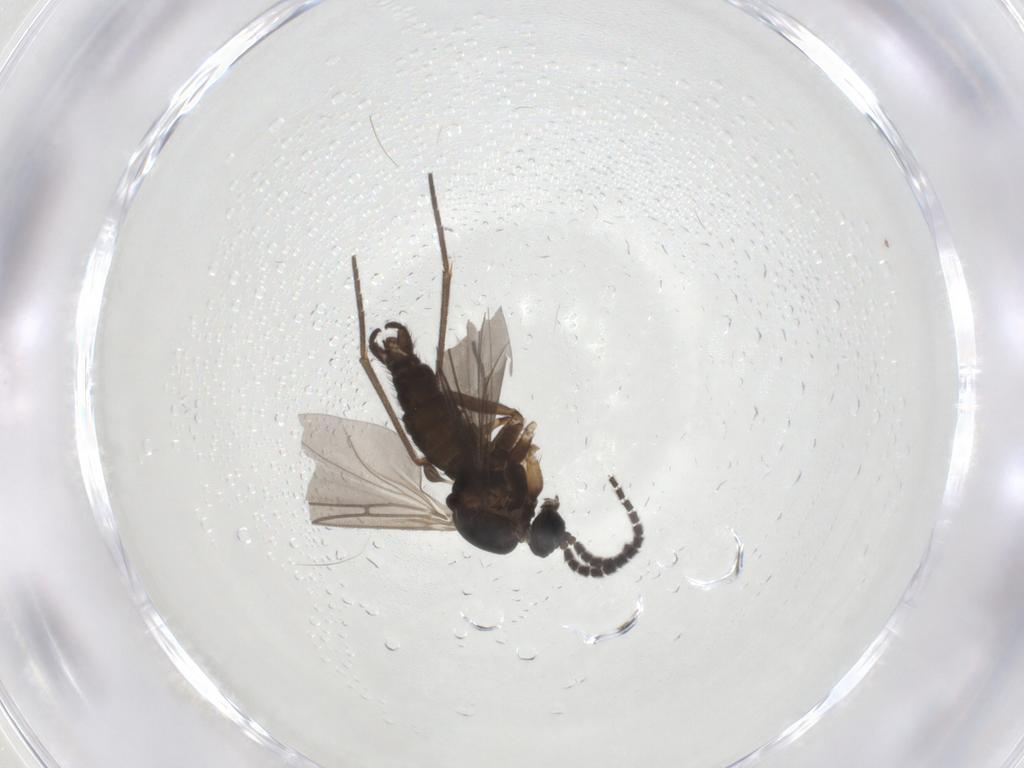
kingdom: Animalia
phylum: Arthropoda
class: Insecta
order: Diptera
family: Sciaridae
